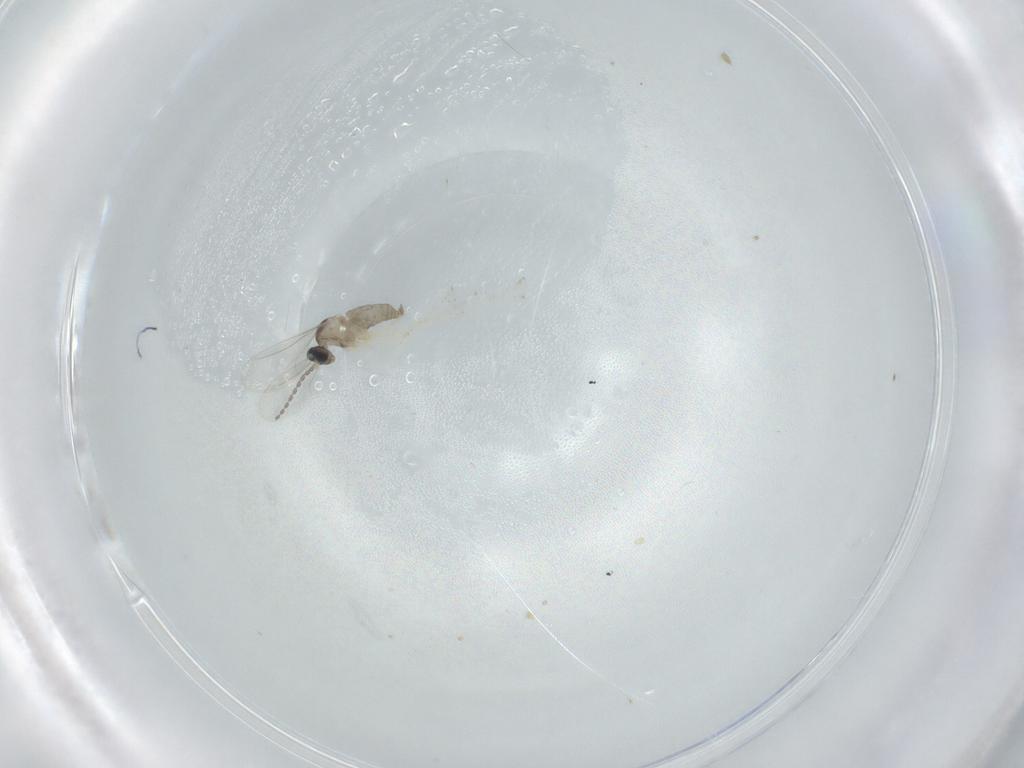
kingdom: Animalia
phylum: Arthropoda
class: Insecta
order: Diptera
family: Cecidomyiidae
